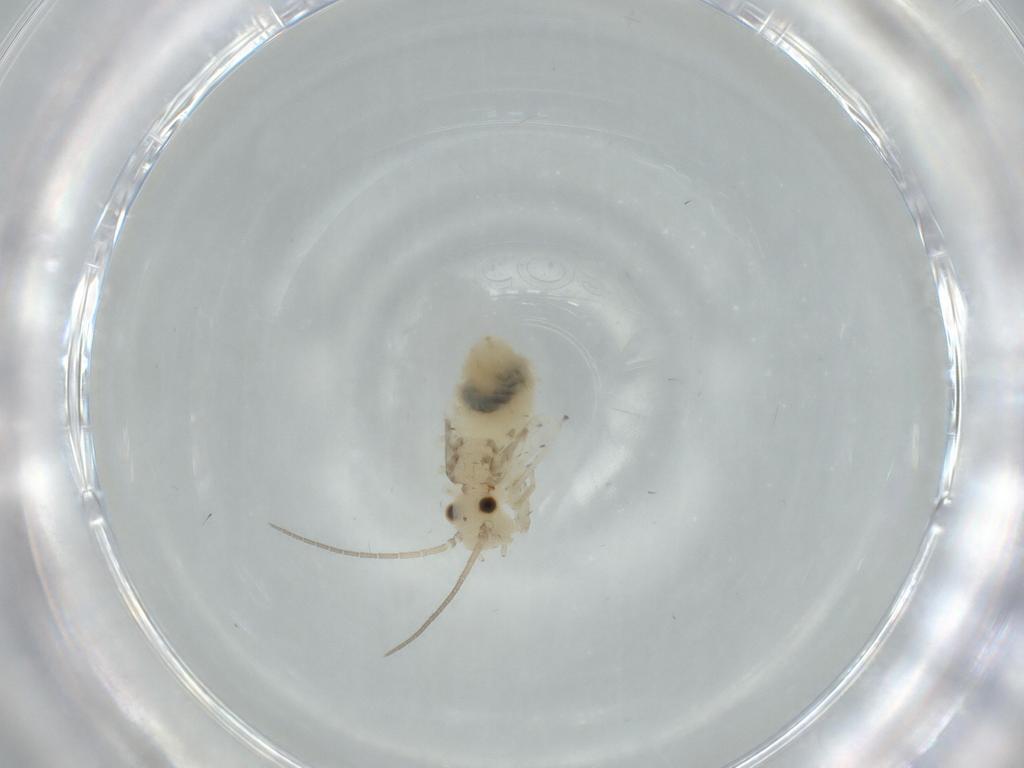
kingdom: Animalia
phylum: Arthropoda
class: Insecta
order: Psocodea
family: Caeciliusidae
